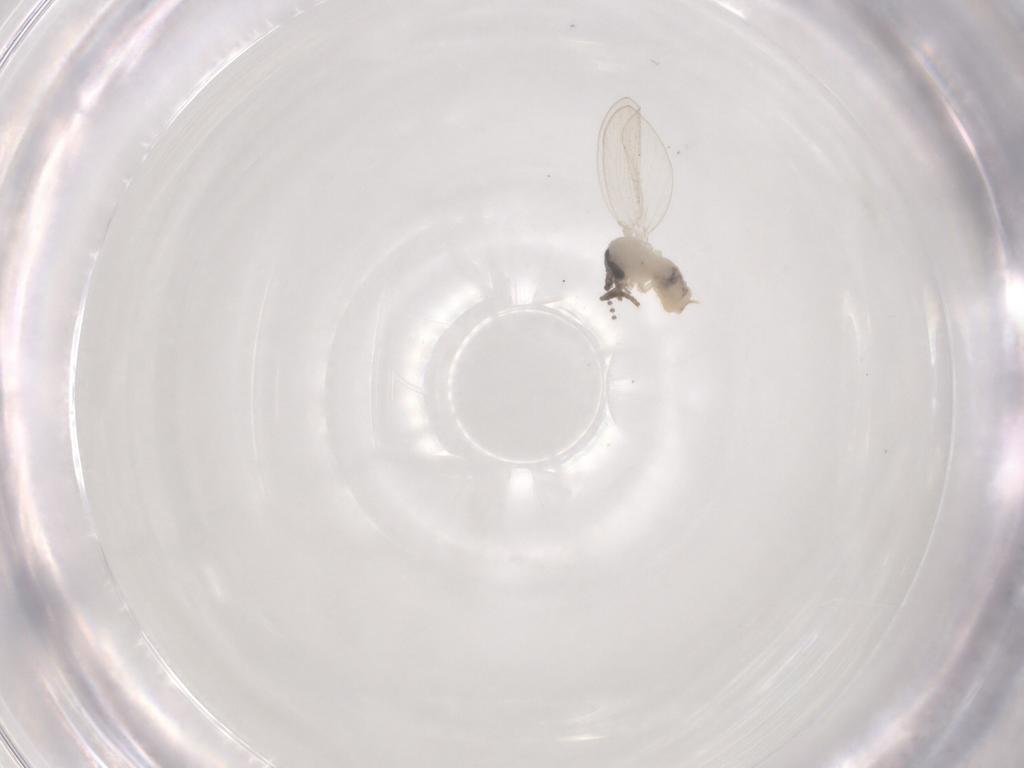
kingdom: Animalia
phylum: Arthropoda
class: Insecta
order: Diptera
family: Psychodidae
